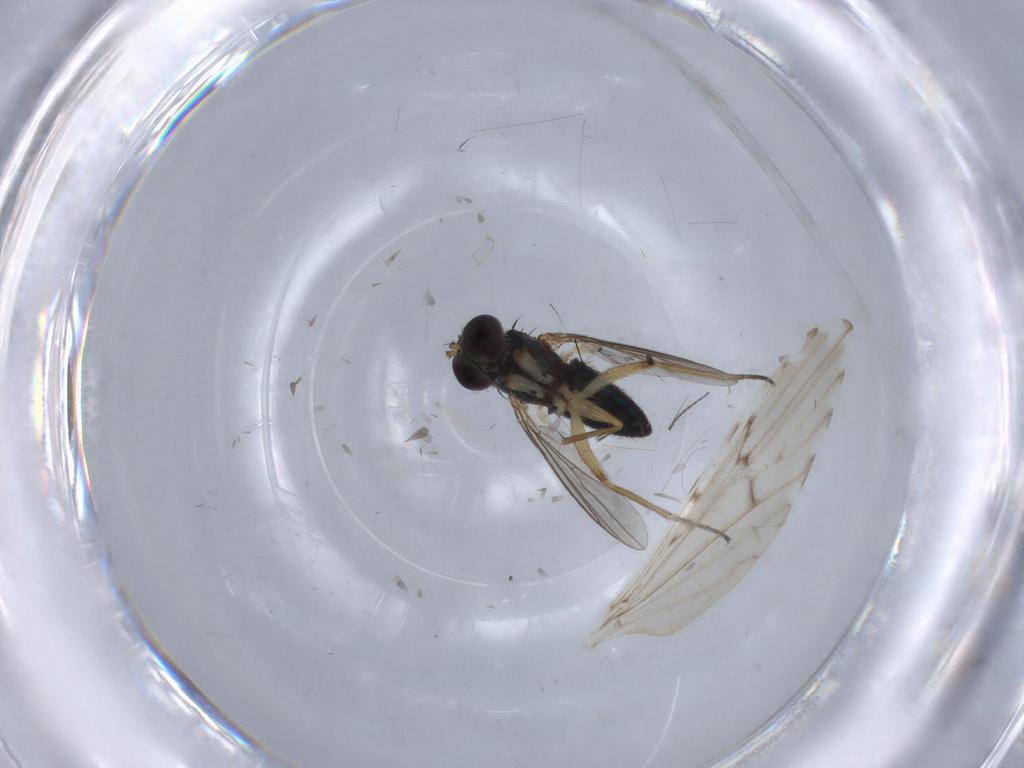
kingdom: Animalia
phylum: Arthropoda
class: Insecta
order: Diptera
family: Ceratopogonidae
